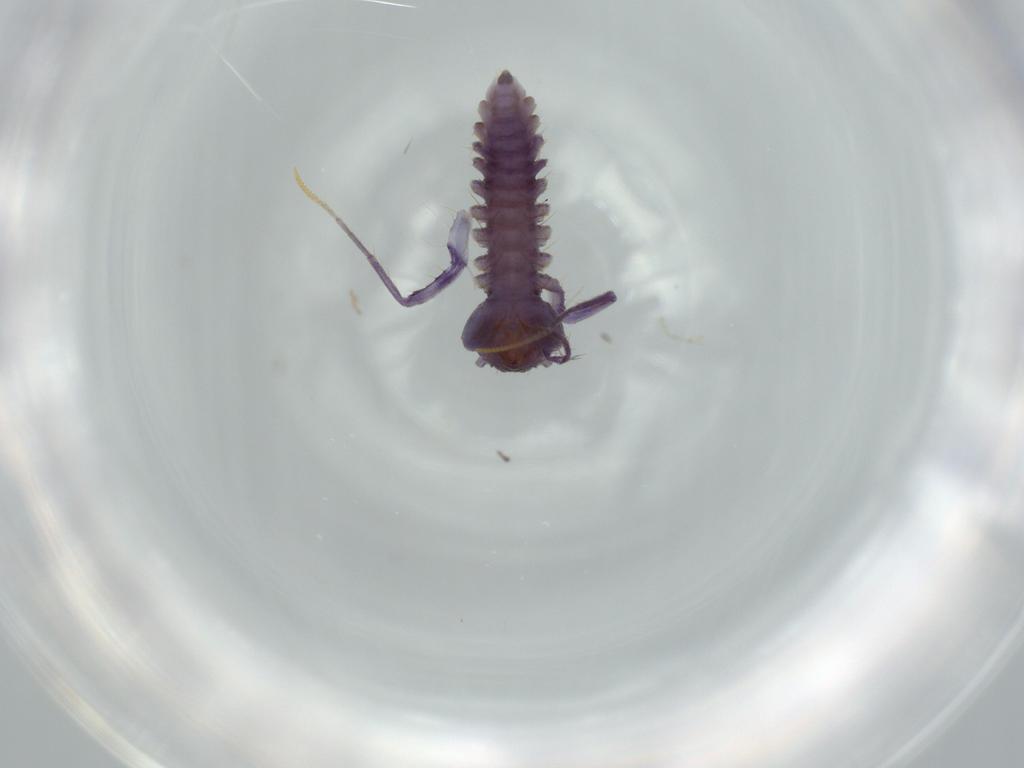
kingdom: Animalia
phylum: Arthropoda
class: Chilopoda
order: Scutigeromorpha
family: Scutigeridae
